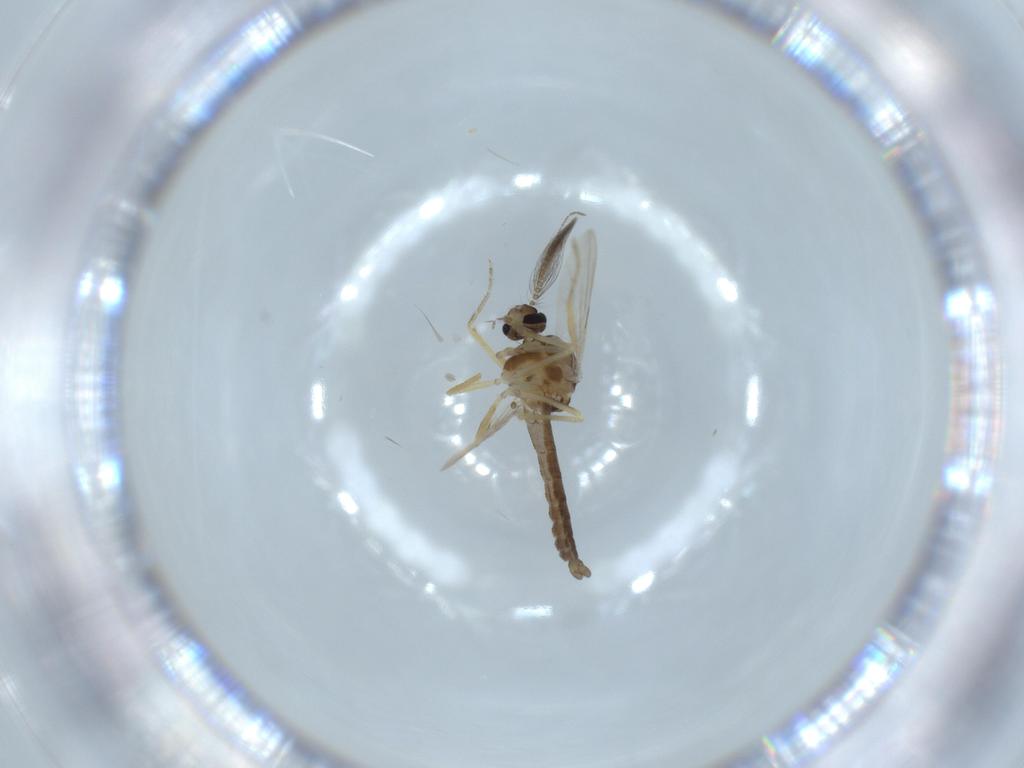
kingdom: Animalia
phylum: Arthropoda
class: Insecta
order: Diptera
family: Ceratopogonidae
